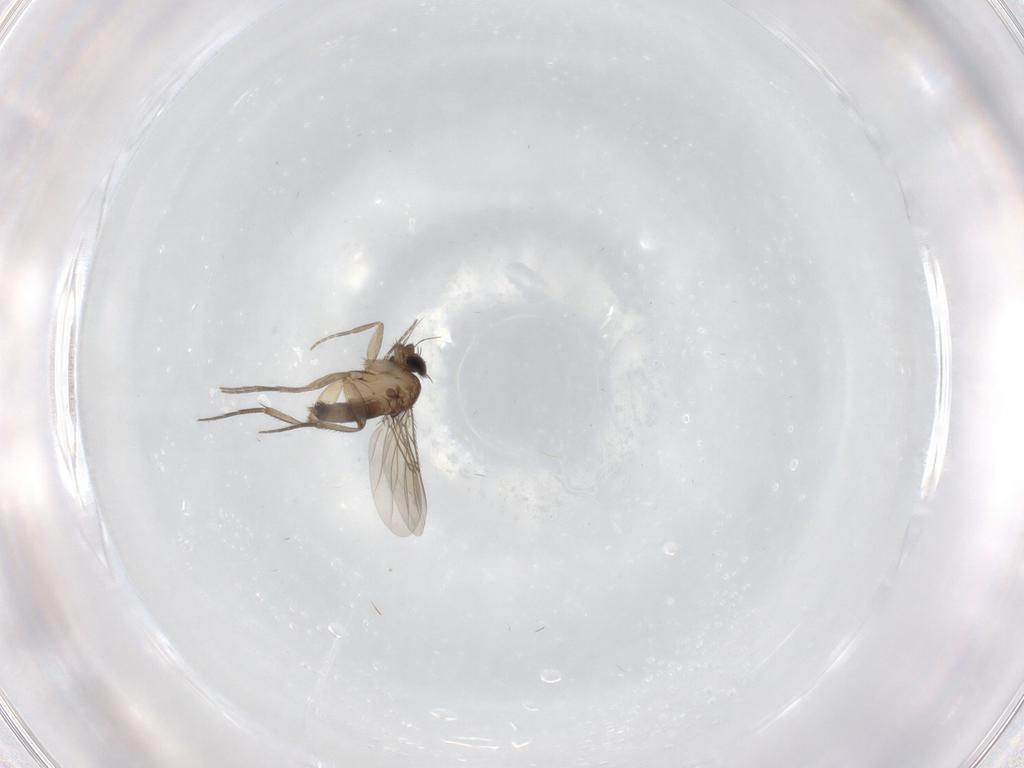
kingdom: Animalia
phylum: Arthropoda
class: Insecta
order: Diptera
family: Phoridae
